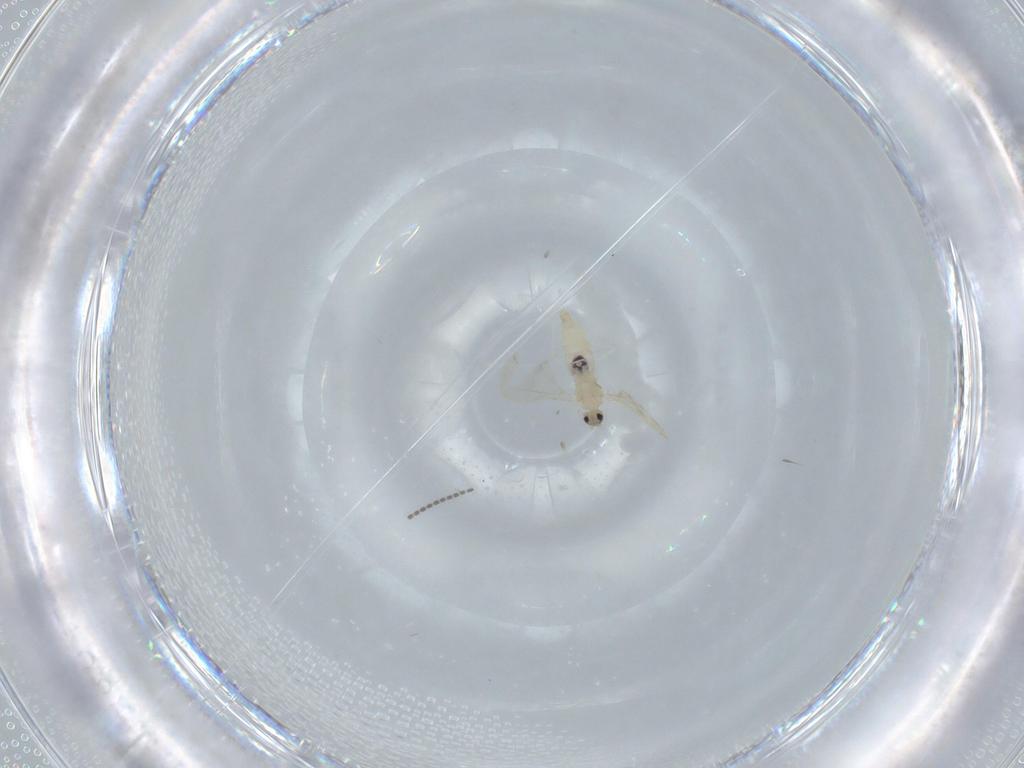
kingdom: Animalia
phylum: Arthropoda
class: Insecta
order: Diptera
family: Cecidomyiidae
